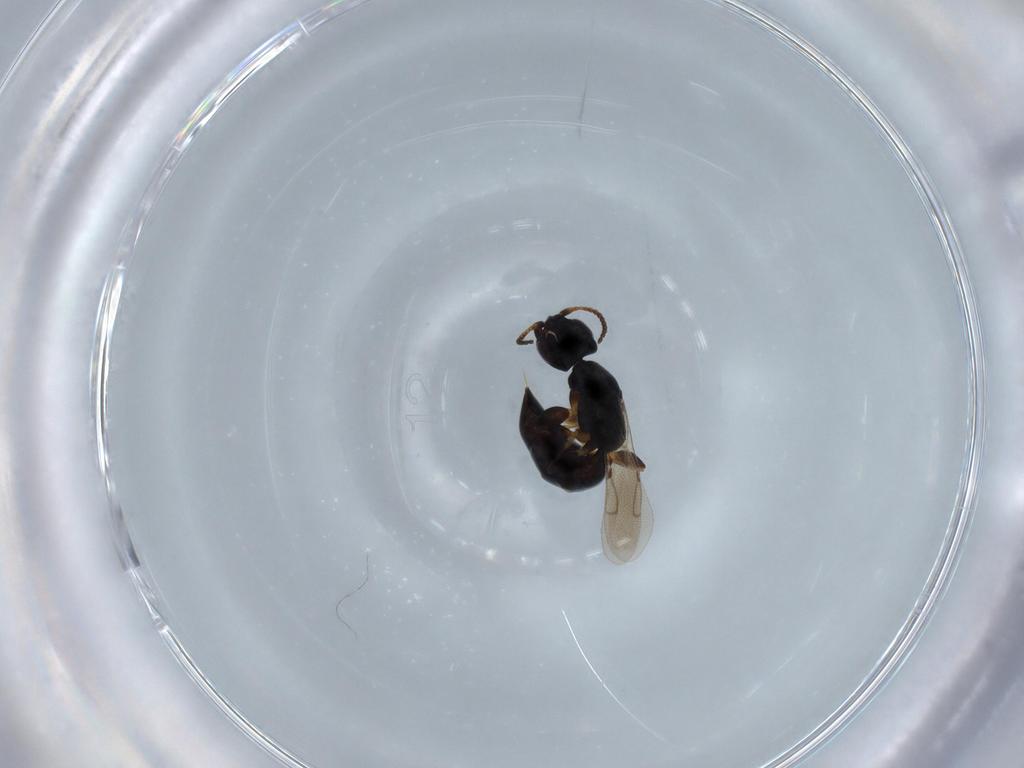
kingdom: Animalia
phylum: Arthropoda
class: Insecta
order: Hymenoptera
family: Bethylidae
